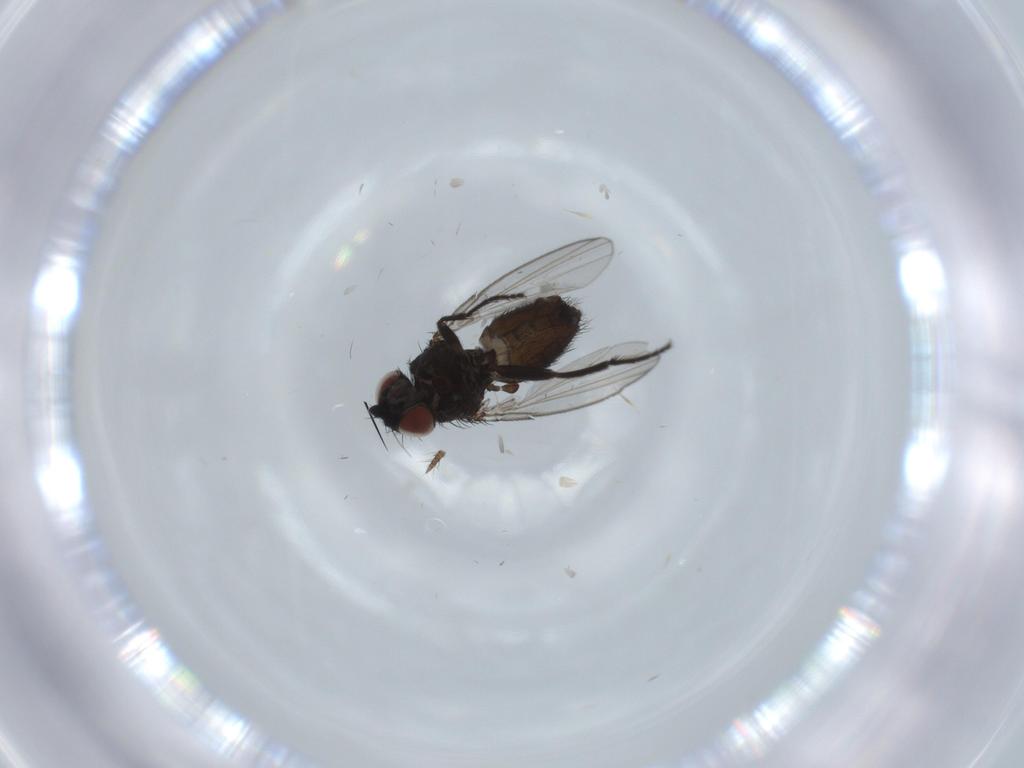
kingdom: Animalia
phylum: Arthropoda
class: Insecta
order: Diptera
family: Milichiidae
